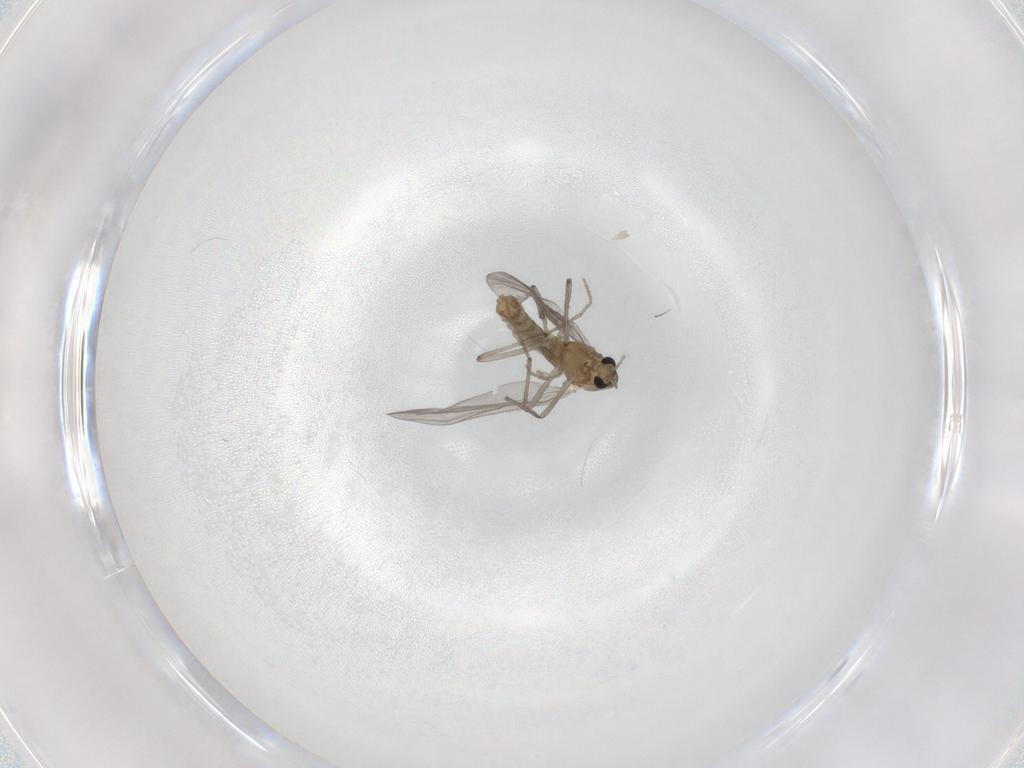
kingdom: Animalia
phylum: Arthropoda
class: Insecta
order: Diptera
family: Chironomidae
